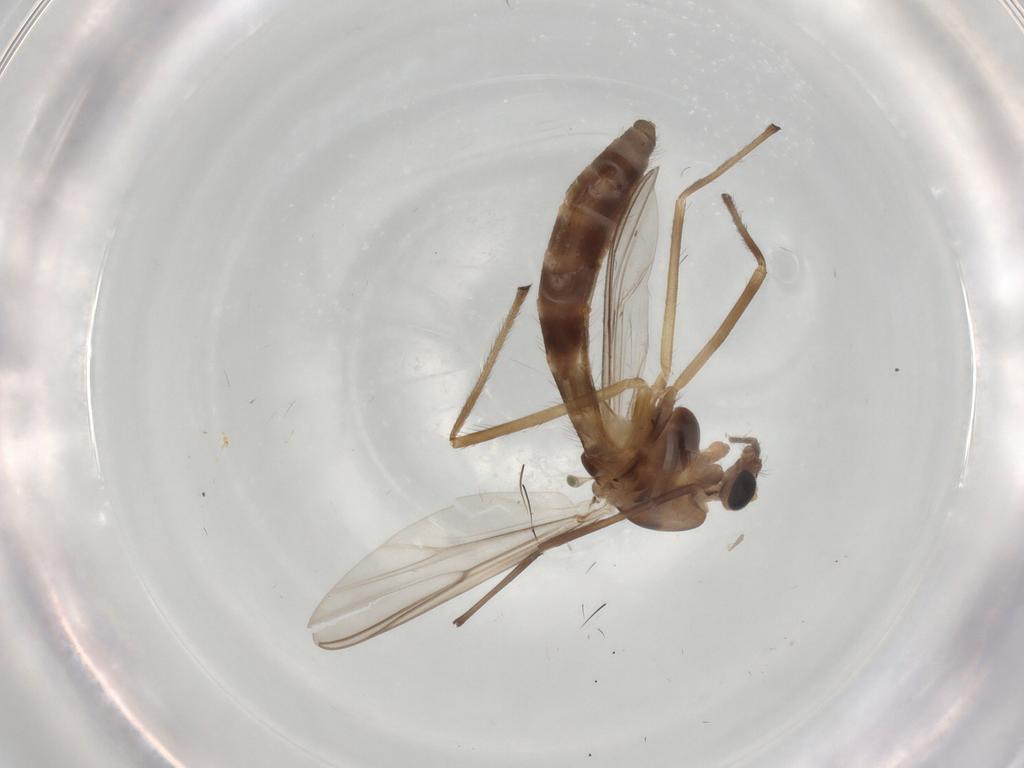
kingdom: Animalia
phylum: Arthropoda
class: Insecta
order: Diptera
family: Chironomidae
